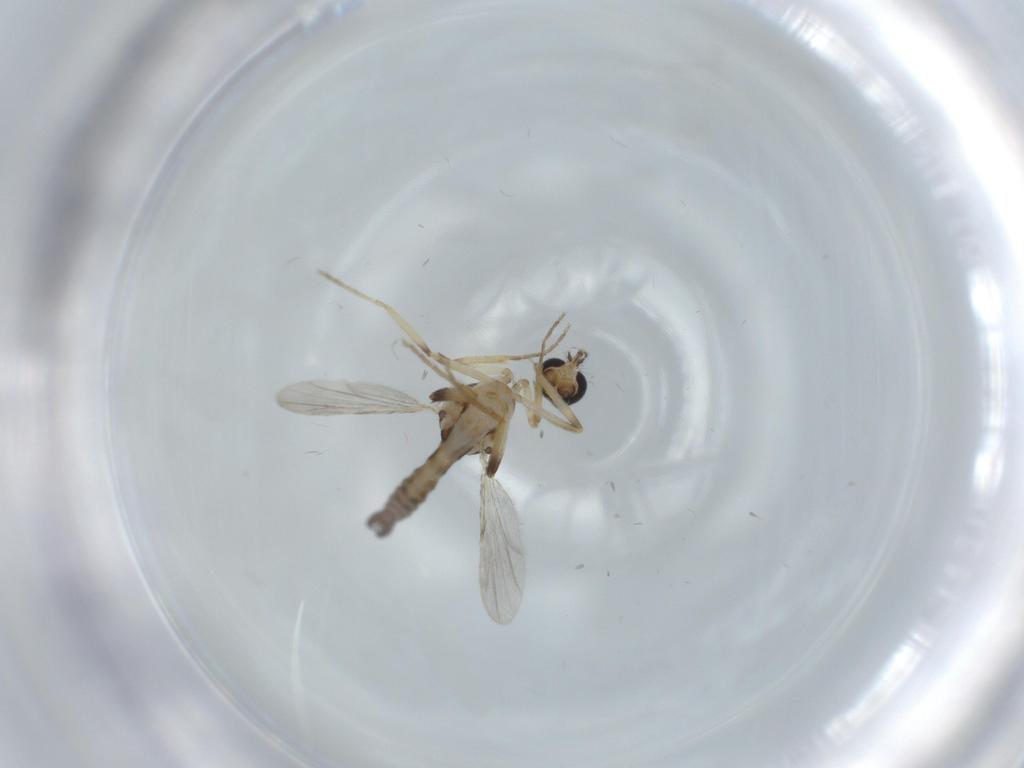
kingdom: Animalia
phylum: Arthropoda
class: Insecta
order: Diptera
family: Ceratopogonidae
